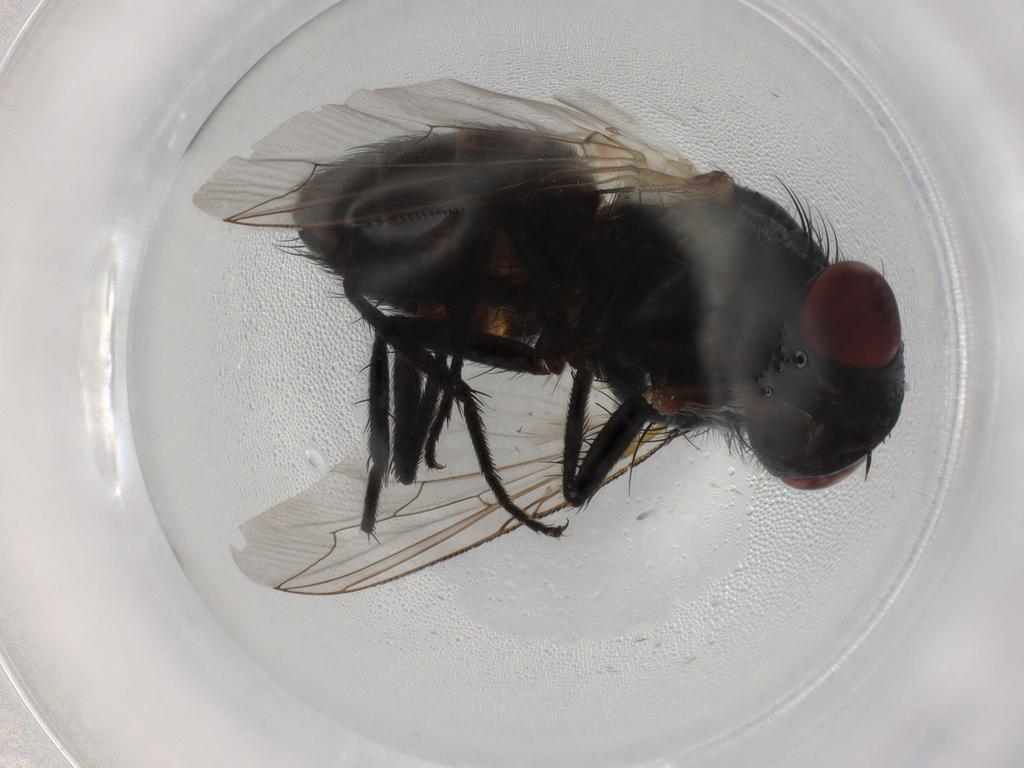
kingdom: Animalia
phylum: Arthropoda
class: Insecta
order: Diptera
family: Sarcophagidae
